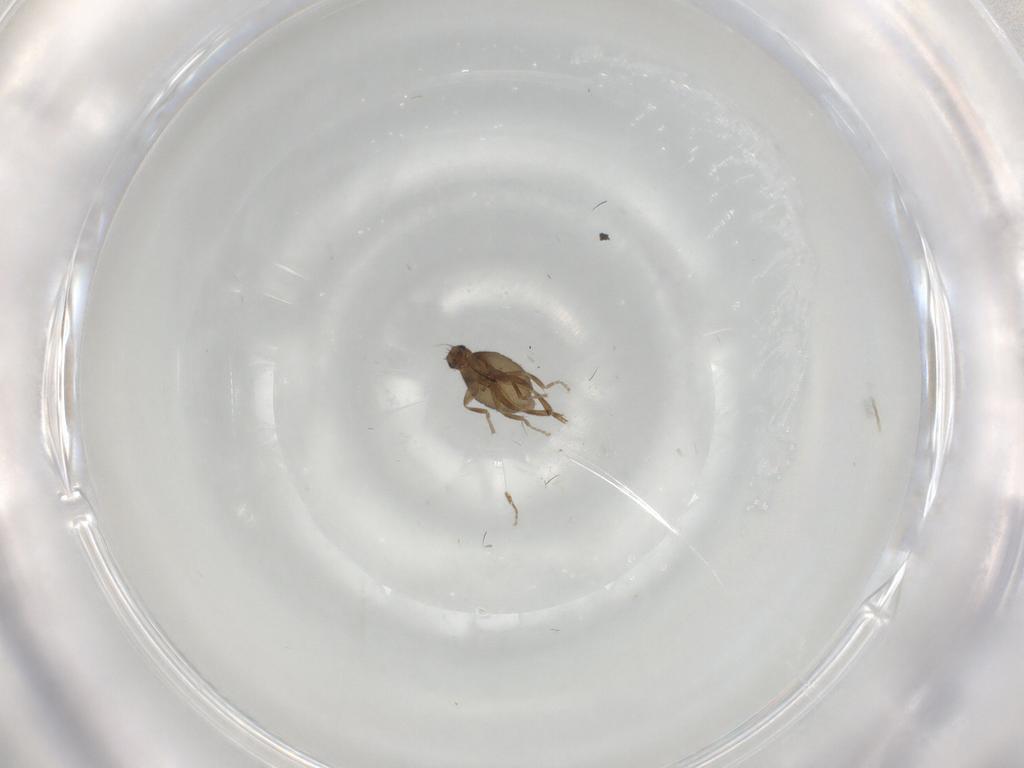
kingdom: Animalia
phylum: Arthropoda
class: Insecta
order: Diptera
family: Phoridae
